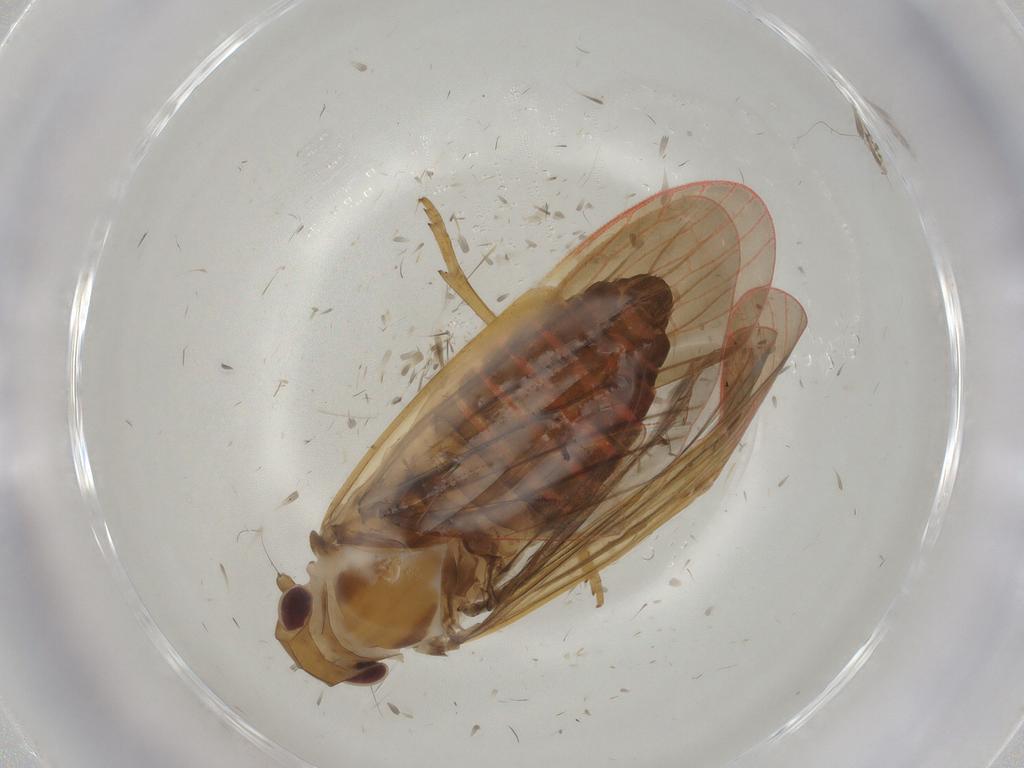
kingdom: Animalia
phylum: Arthropoda
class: Insecta
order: Hemiptera
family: Achilidae
